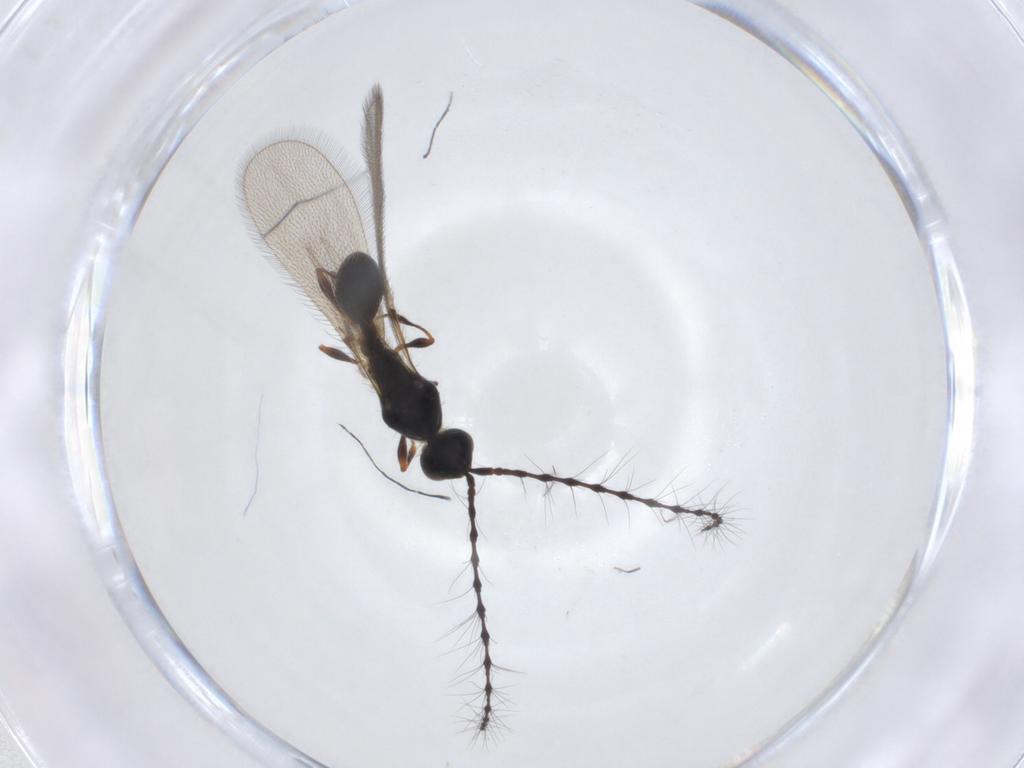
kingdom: Animalia
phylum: Arthropoda
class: Insecta
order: Hymenoptera
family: Diapriidae
